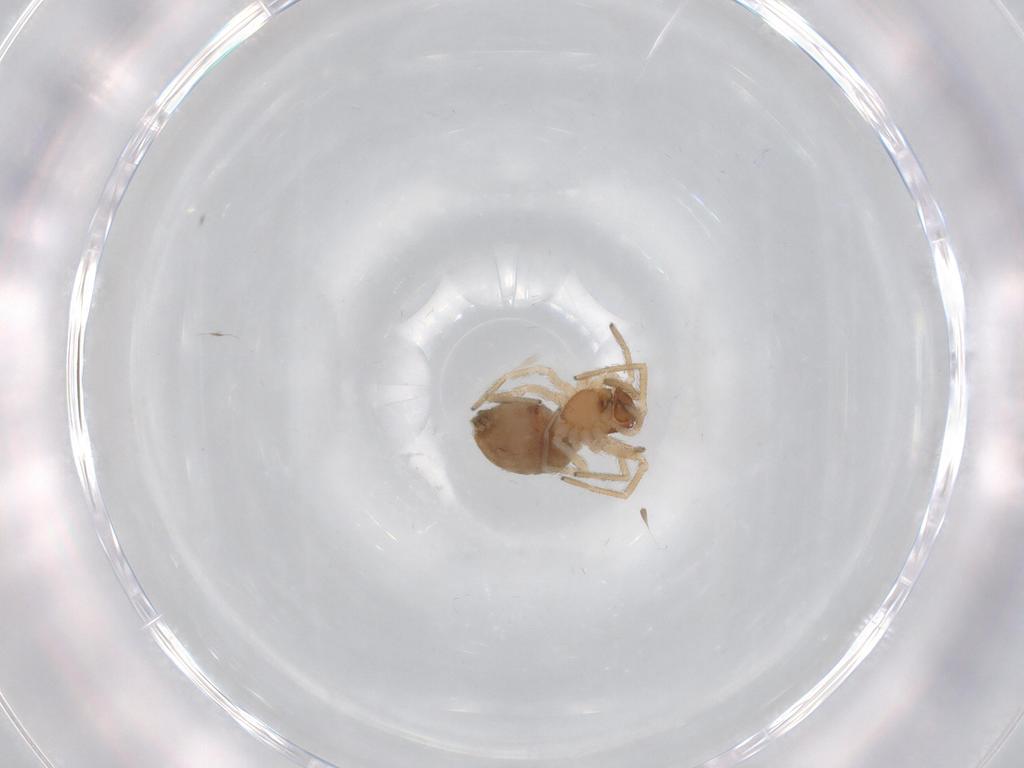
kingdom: Animalia
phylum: Arthropoda
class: Arachnida
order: Araneae
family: Dictynidae
